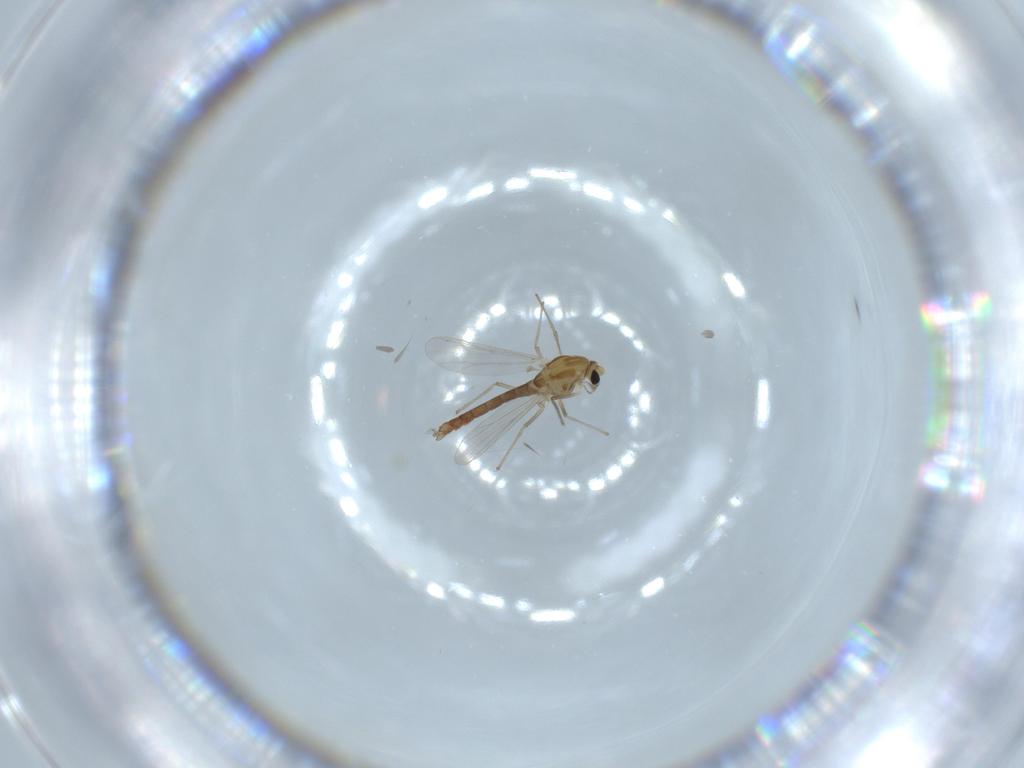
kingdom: Animalia
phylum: Arthropoda
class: Insecta
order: Diptera
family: Chironomidae
